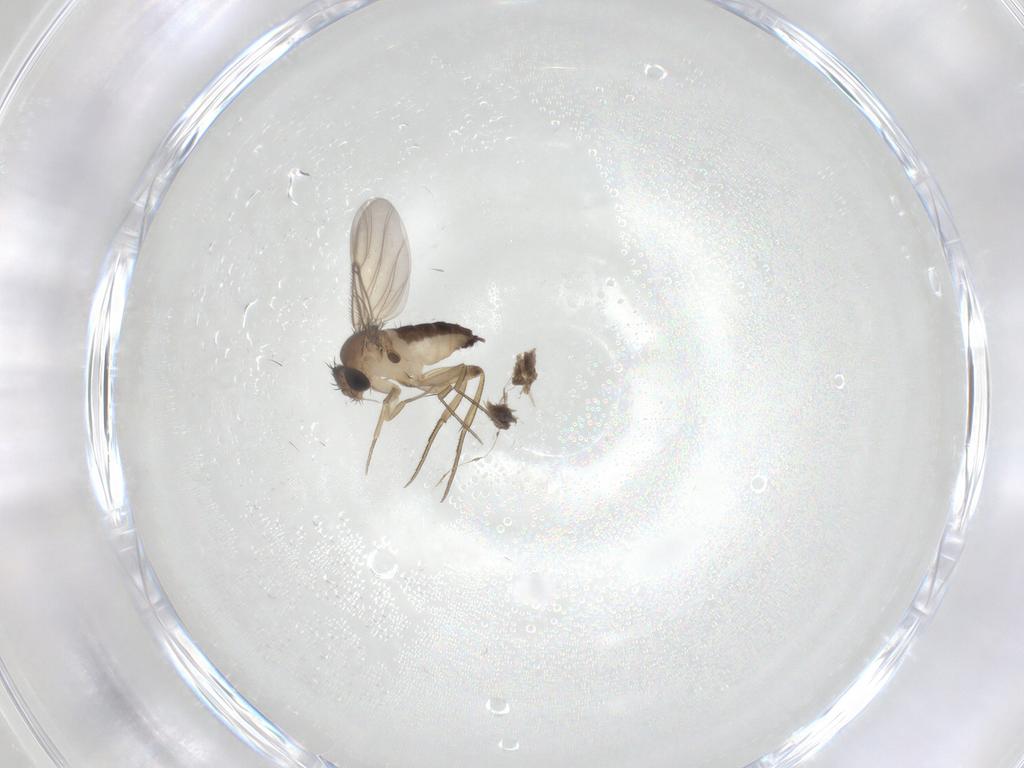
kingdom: Animalia
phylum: Arthropoda
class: Insecta
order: Diptera
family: Phoridae
